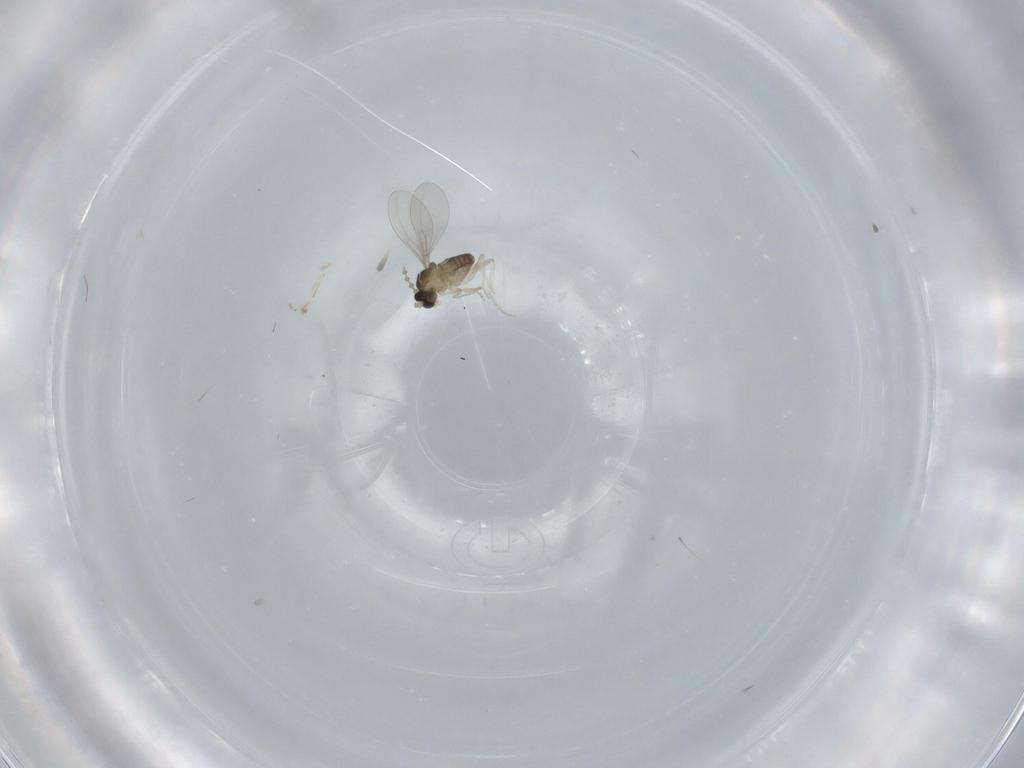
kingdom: Animalia
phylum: Arthropoda
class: Insecta
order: Diptera
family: Cecidomyiidae
